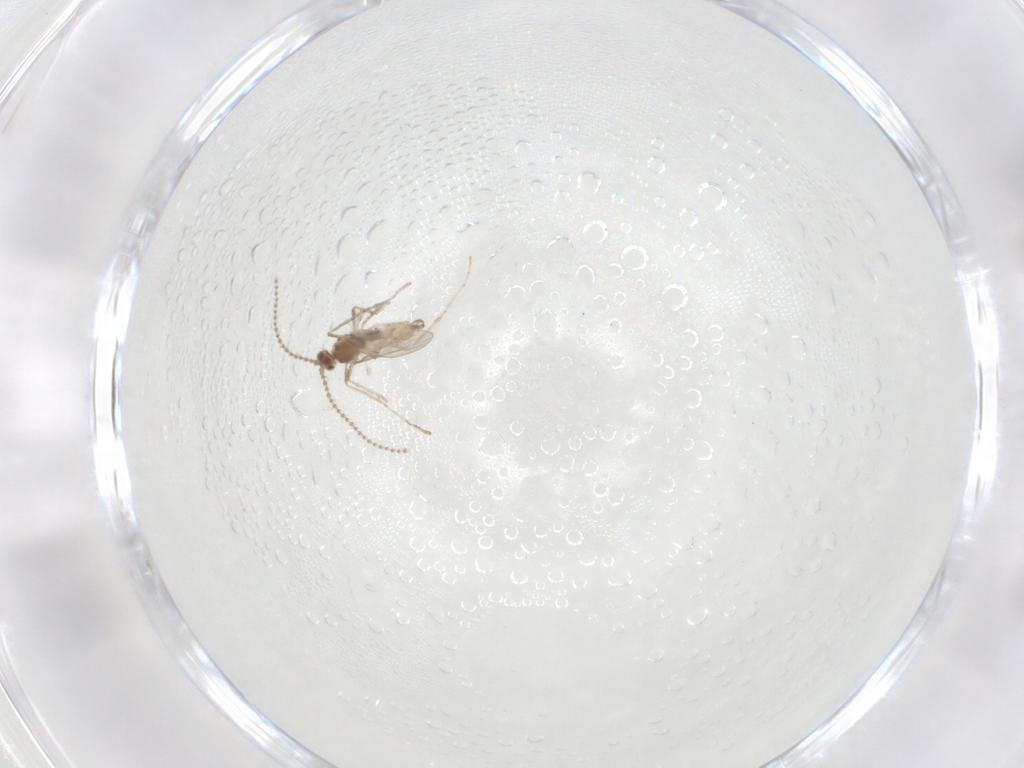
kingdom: Animalia
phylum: Arthropoda
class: Insecta
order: Diptera
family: Cecidomyiidae
